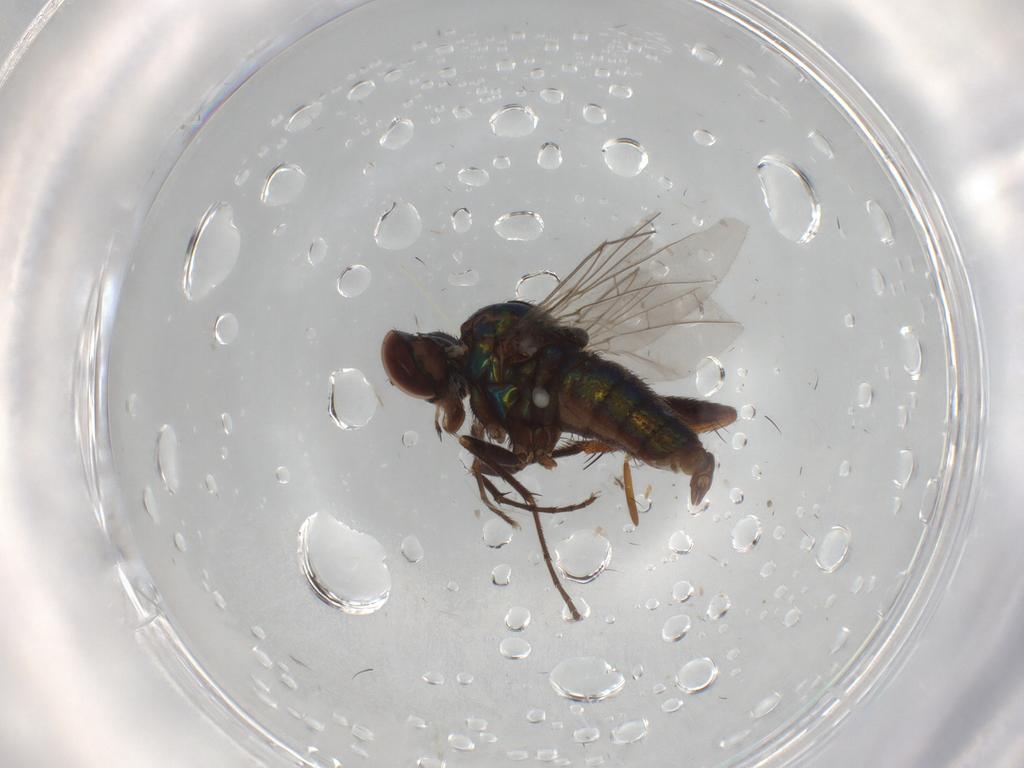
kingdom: Animalia
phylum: Arthropoda
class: Insecta
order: Diptera
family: Dolichopodidae
